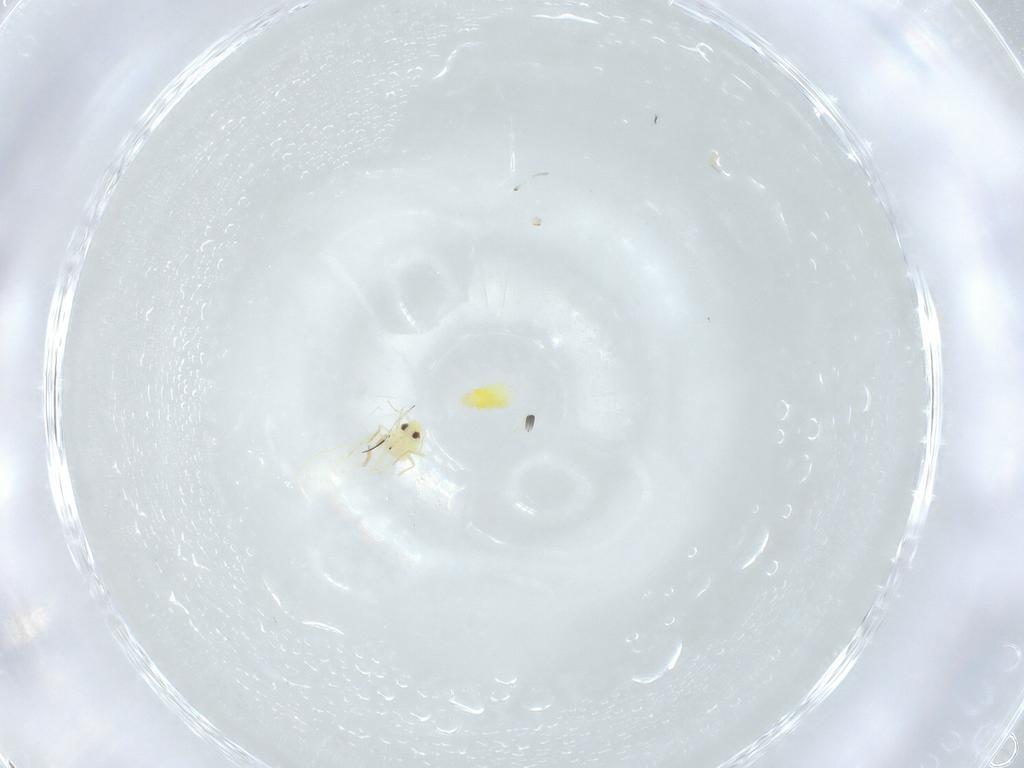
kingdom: Animalia
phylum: Arthropoda
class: Insecta
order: Hemiptera
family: Aleyrodidae
